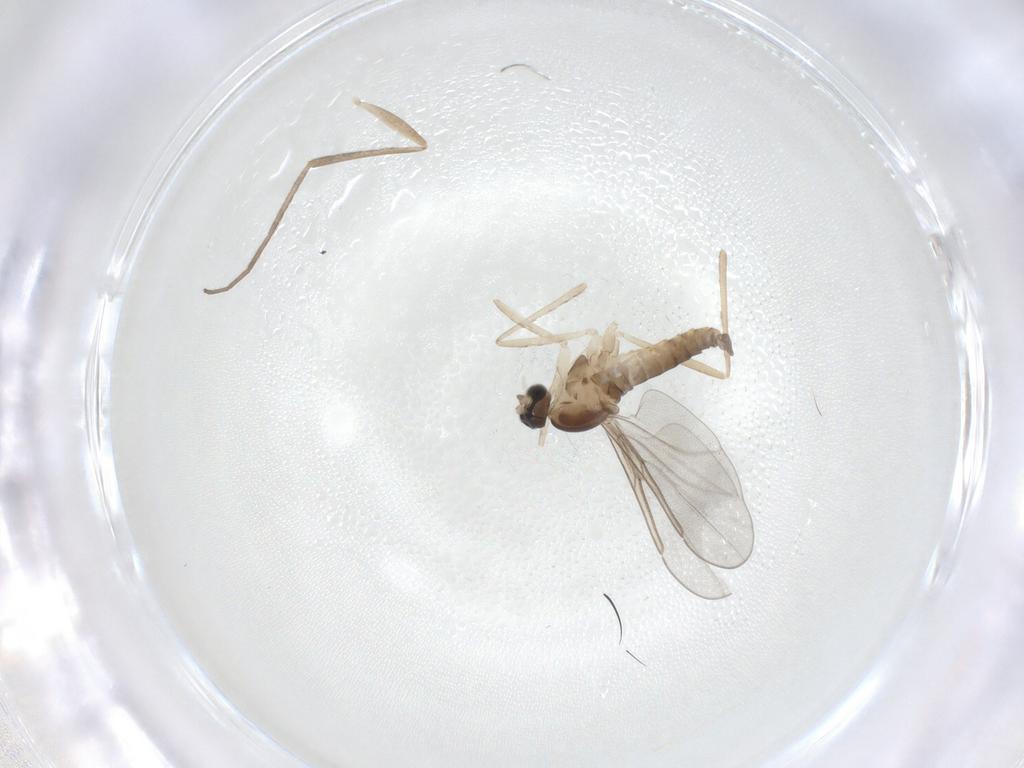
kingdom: Animalia
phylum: Arthropoda
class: Insecta
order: Diptera
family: Cecidomyiidae
